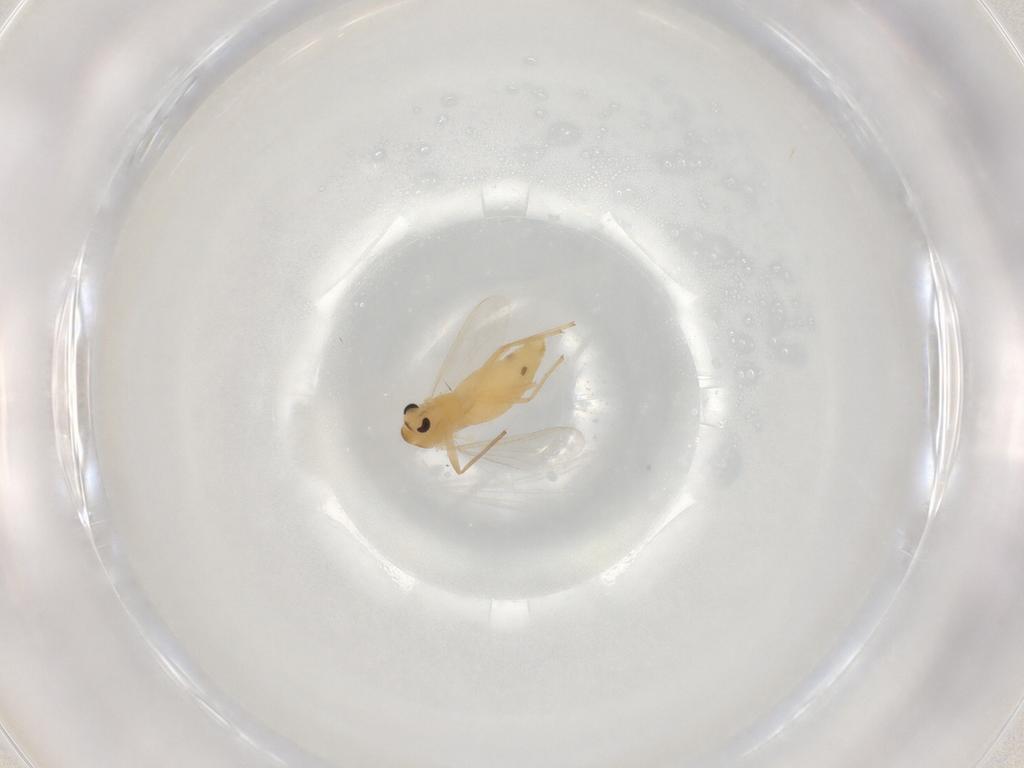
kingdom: Animalia
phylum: Arthropoda
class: Insecta
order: Diptera
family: Chironomidae
